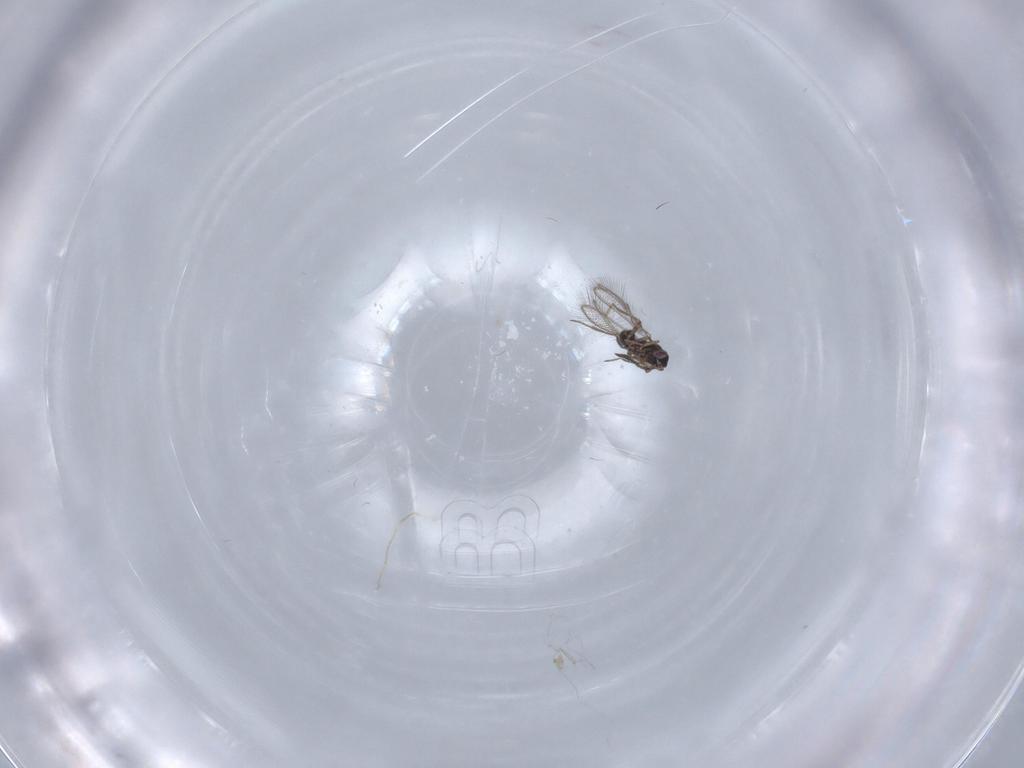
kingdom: Animalia
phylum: Arthropoda
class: Insecta
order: Hymenoptera
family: Mymaridae
